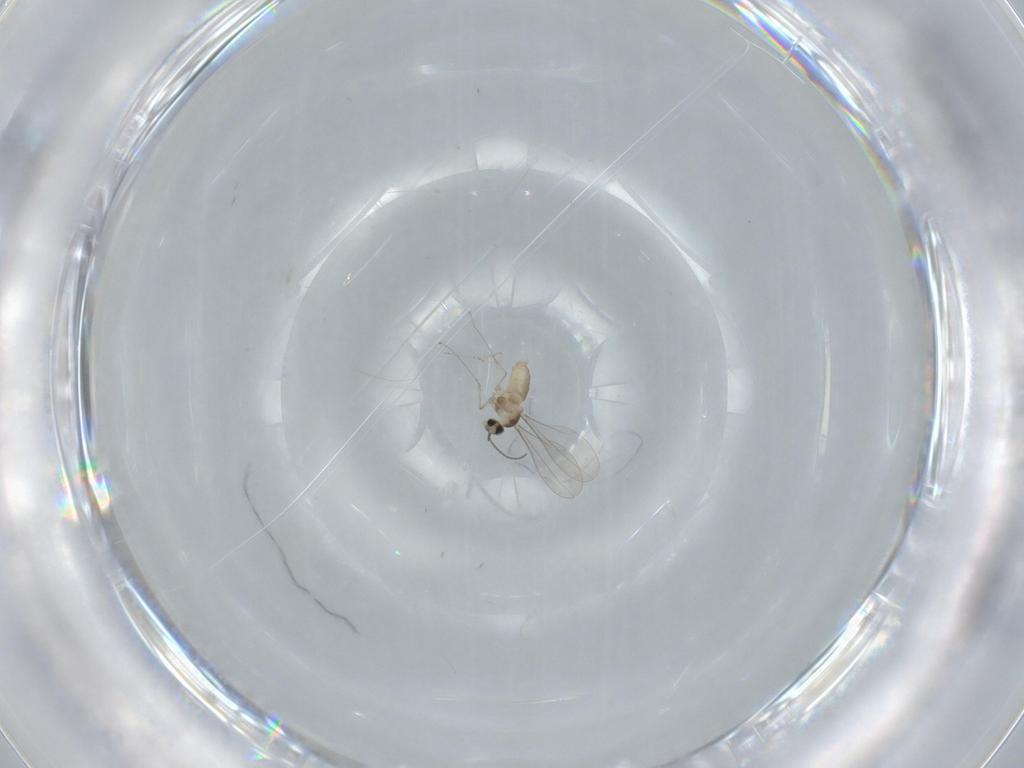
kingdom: Animalia
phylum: Arthropoda
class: Insecta
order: Diptera
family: Cecidomyiidae
